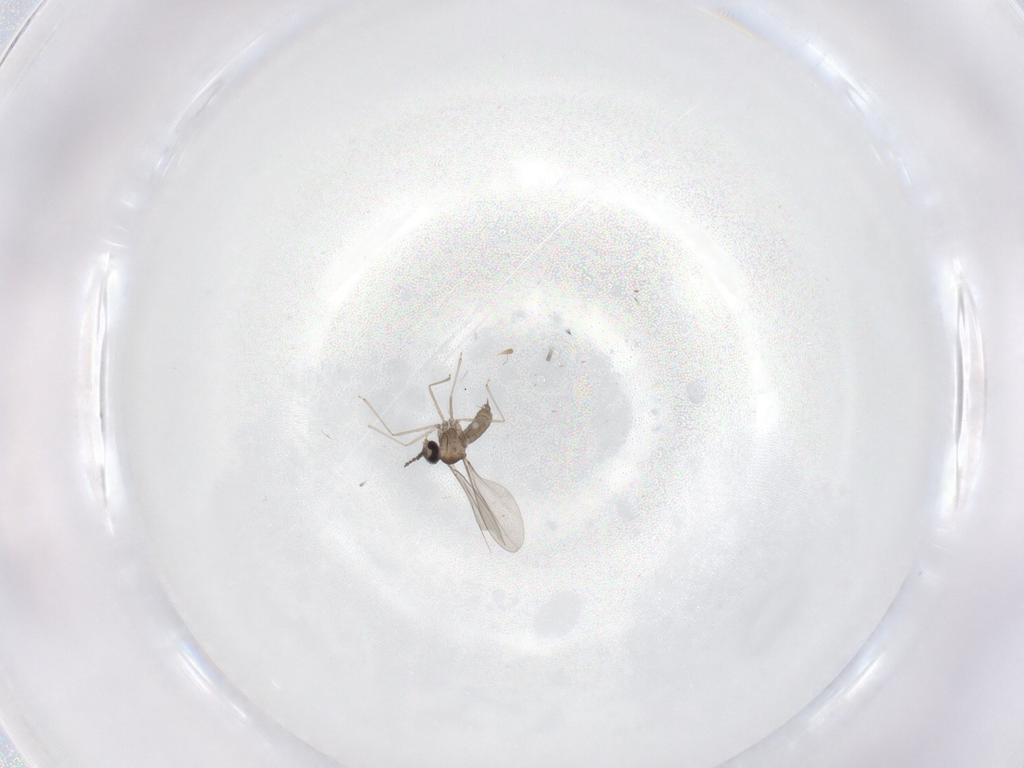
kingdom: Animalia
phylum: Arthropoda
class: Insecta
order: Diptera
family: Chironomidae
